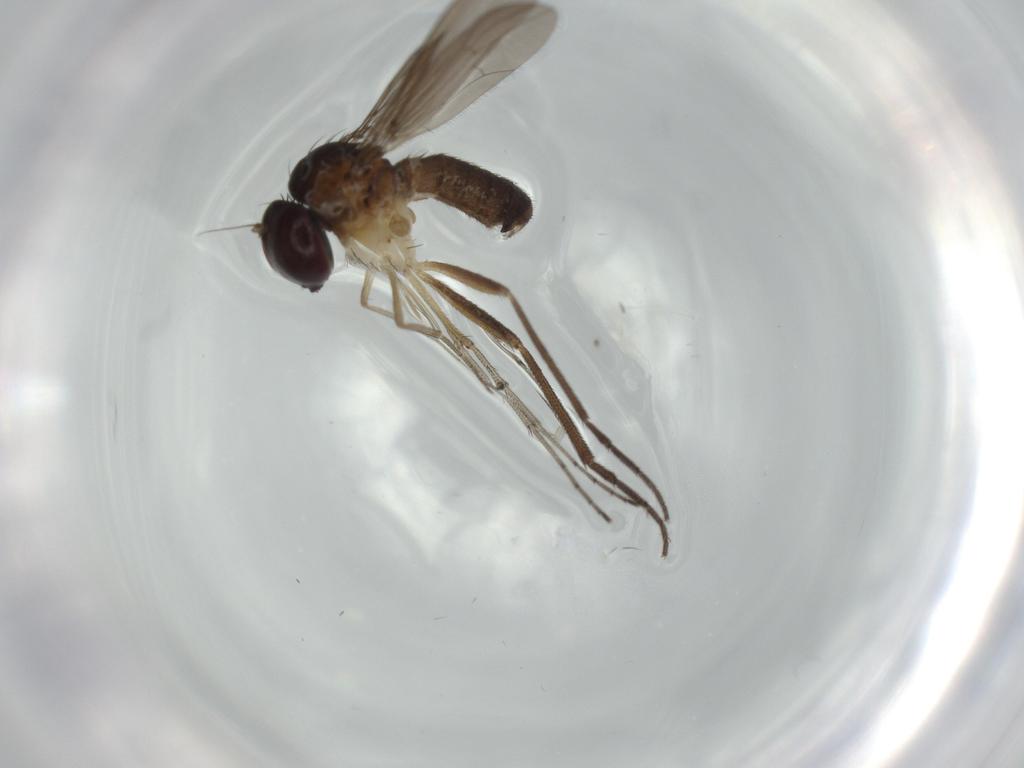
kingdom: Animalia
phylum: Arthropoda
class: Insecta
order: Diptera
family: Dolichopodidae
